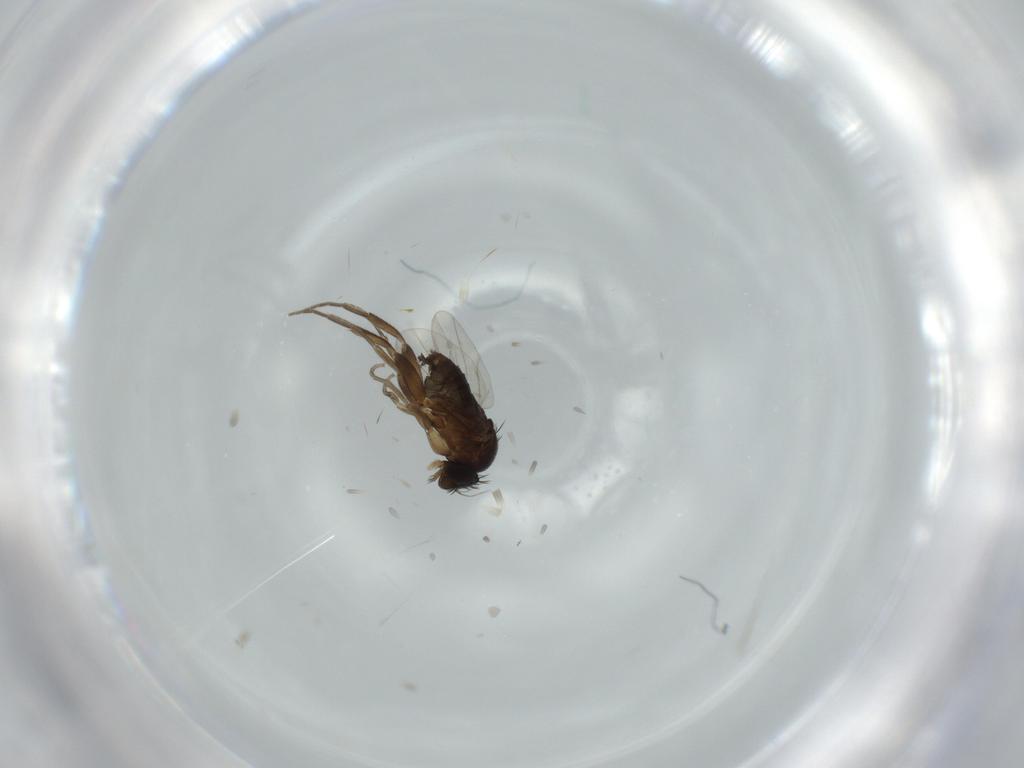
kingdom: Animalia
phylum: Arthropoda
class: Insecta
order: Diptera
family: Phoridae
